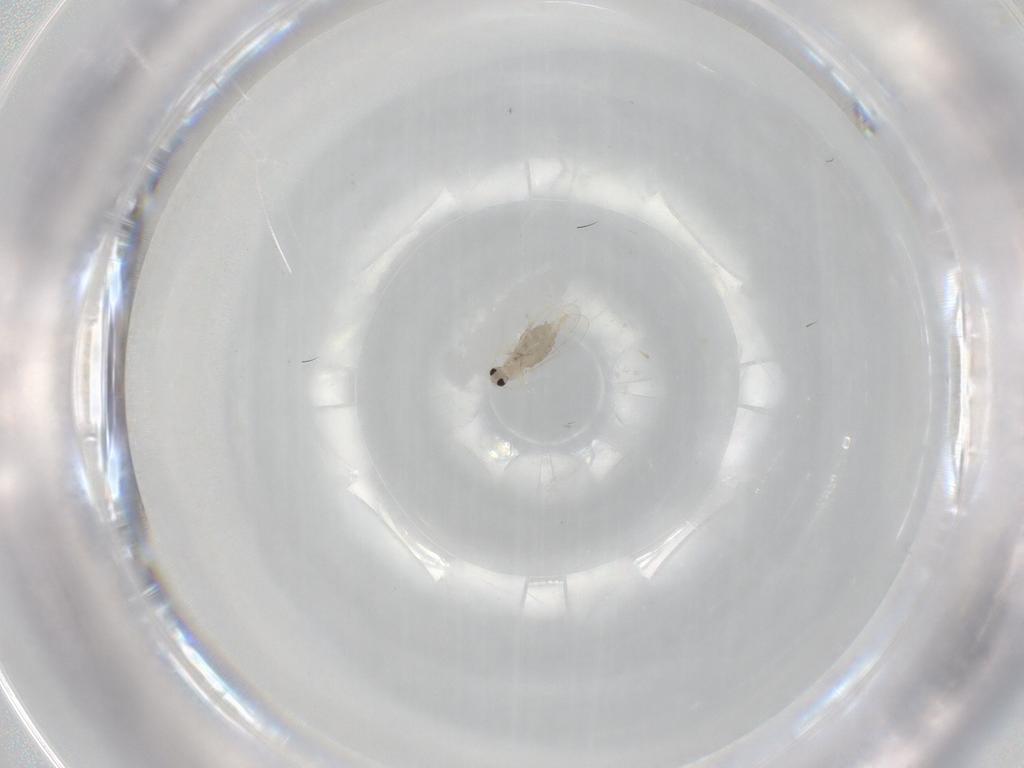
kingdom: Animalia
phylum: Arthropoda
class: Insecta
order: Diptera
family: Cecidomyiidae
